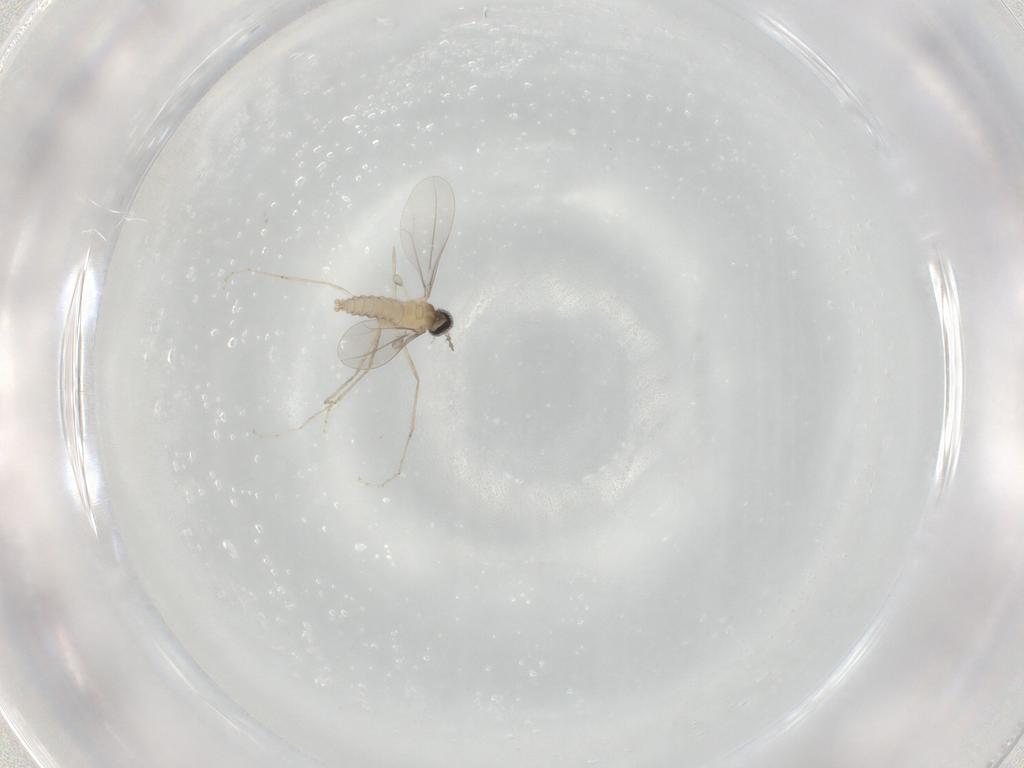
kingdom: Animalia
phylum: Arthropoda
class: Insecta
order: Diptera
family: Cecidomyiidae
